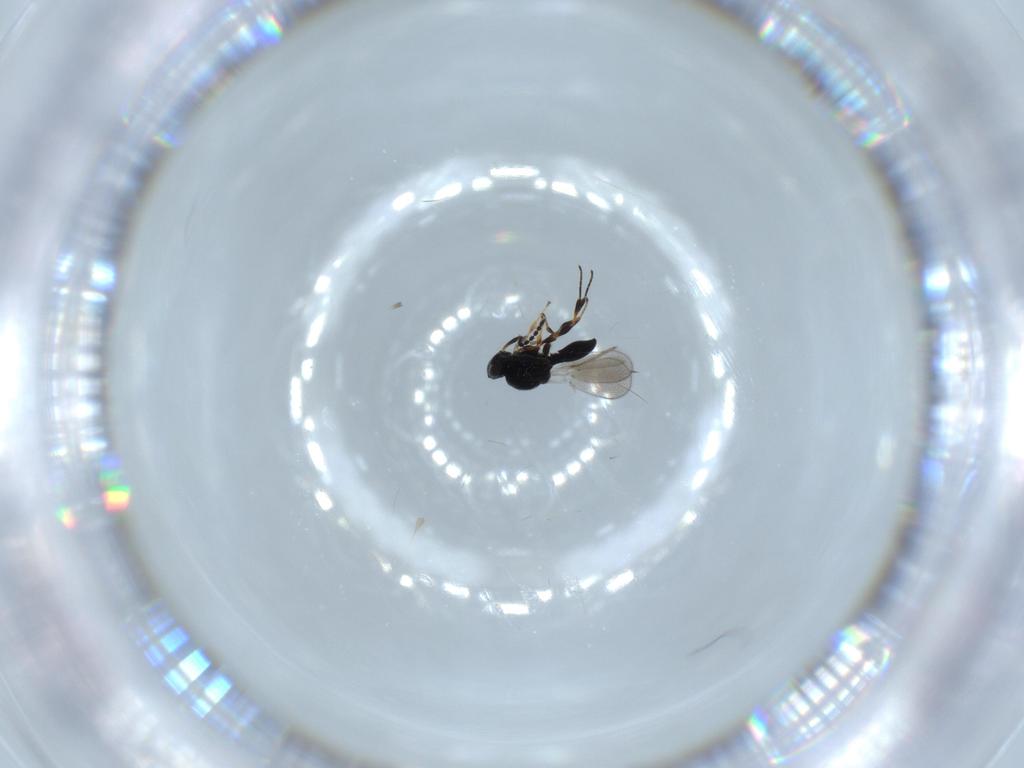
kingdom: Animalia
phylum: Arthropoda
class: Insecta
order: Hymenoptera
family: Platygastridae
